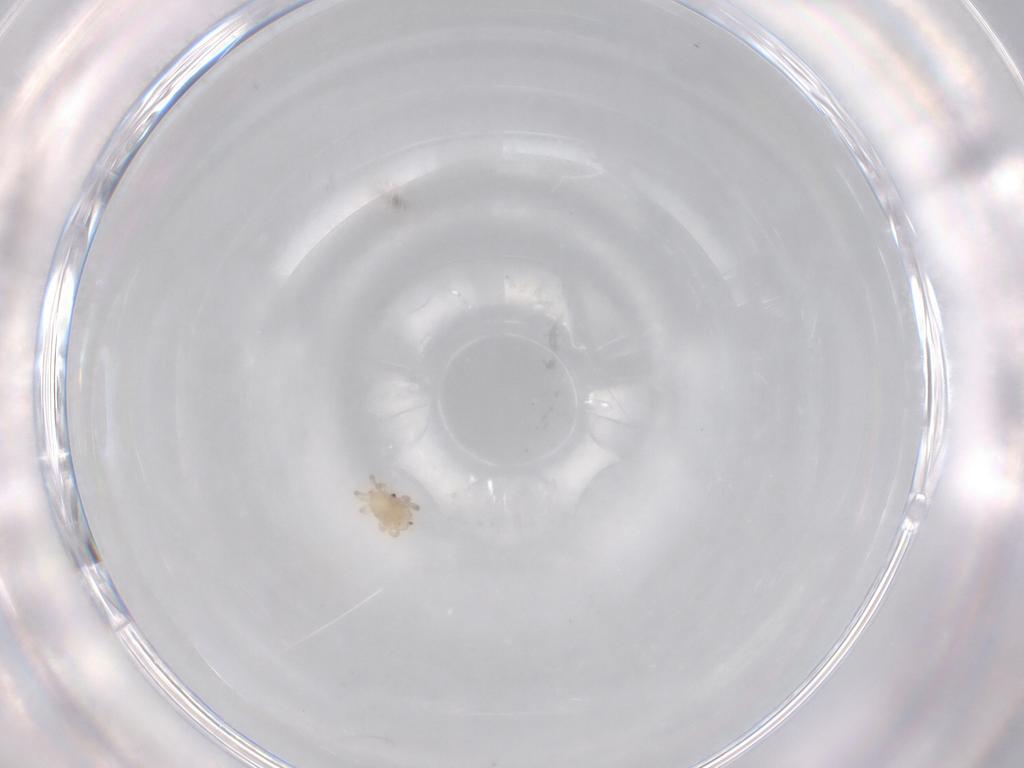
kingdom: Animalia
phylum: Arthropoda
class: Arachnida
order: Mesostigmata
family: Ameroseiidae
